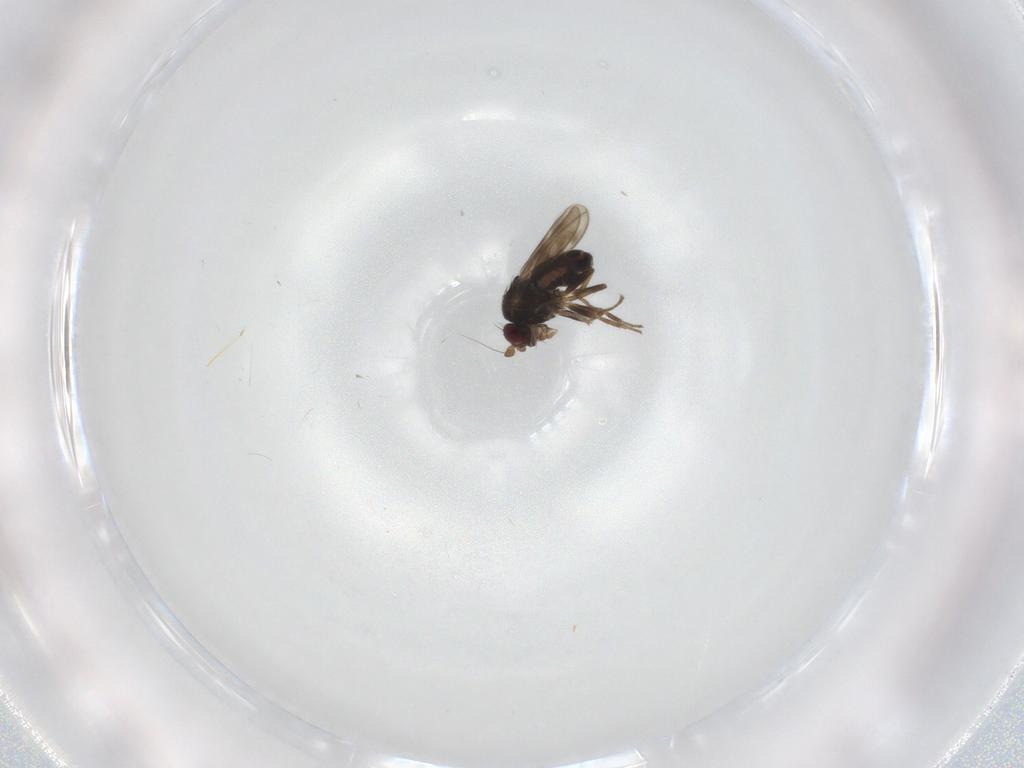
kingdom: Animalia
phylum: Arthropoda
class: Insecta
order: Diptera
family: Sphaeroceridae
